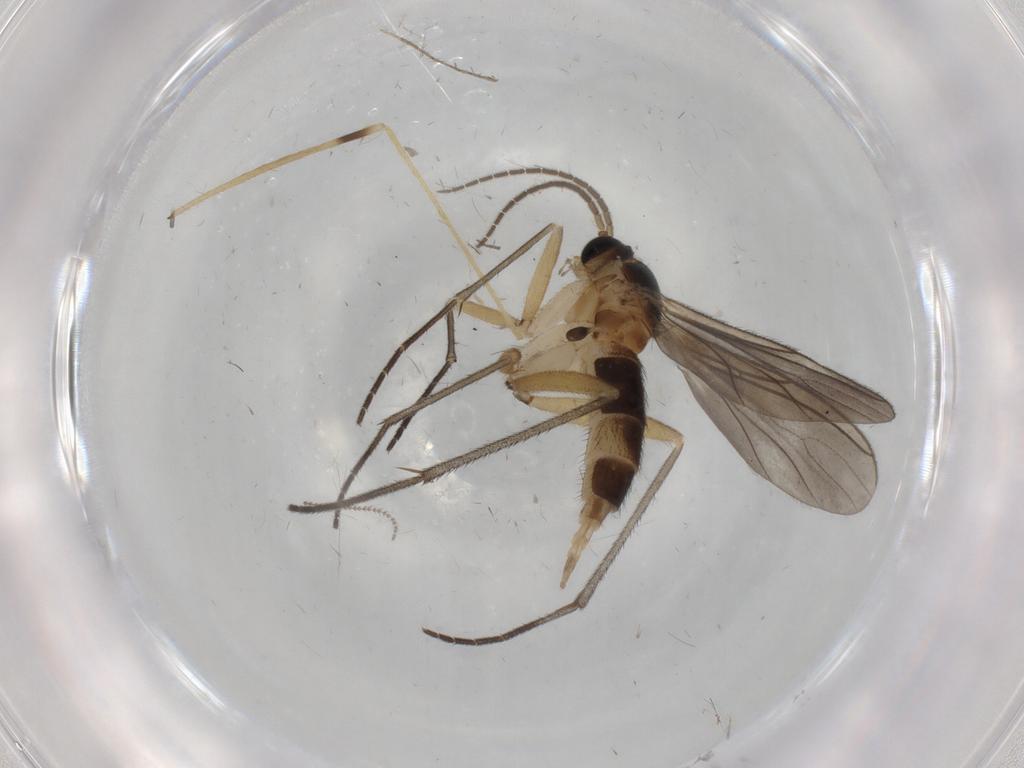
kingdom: Animalia
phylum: Arthropoda
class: Insecta
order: Diptera
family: Sciaridae
